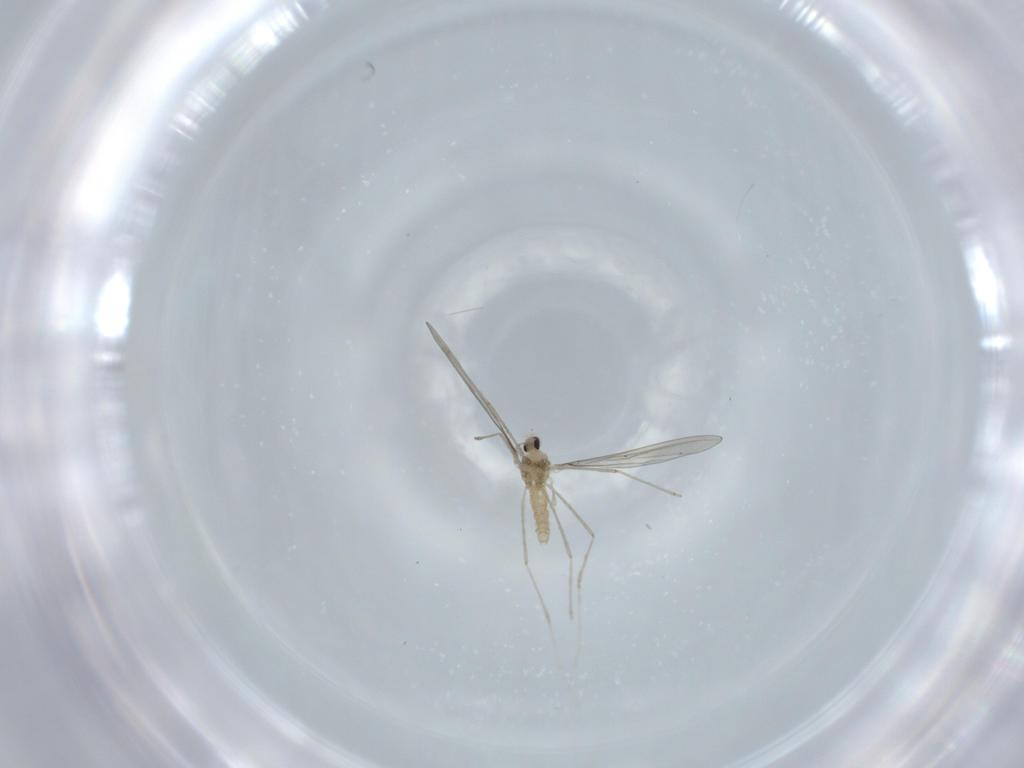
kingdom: Animalia
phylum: Arthropoda
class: Insecta
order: Diptera
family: Cecidomyiidae
